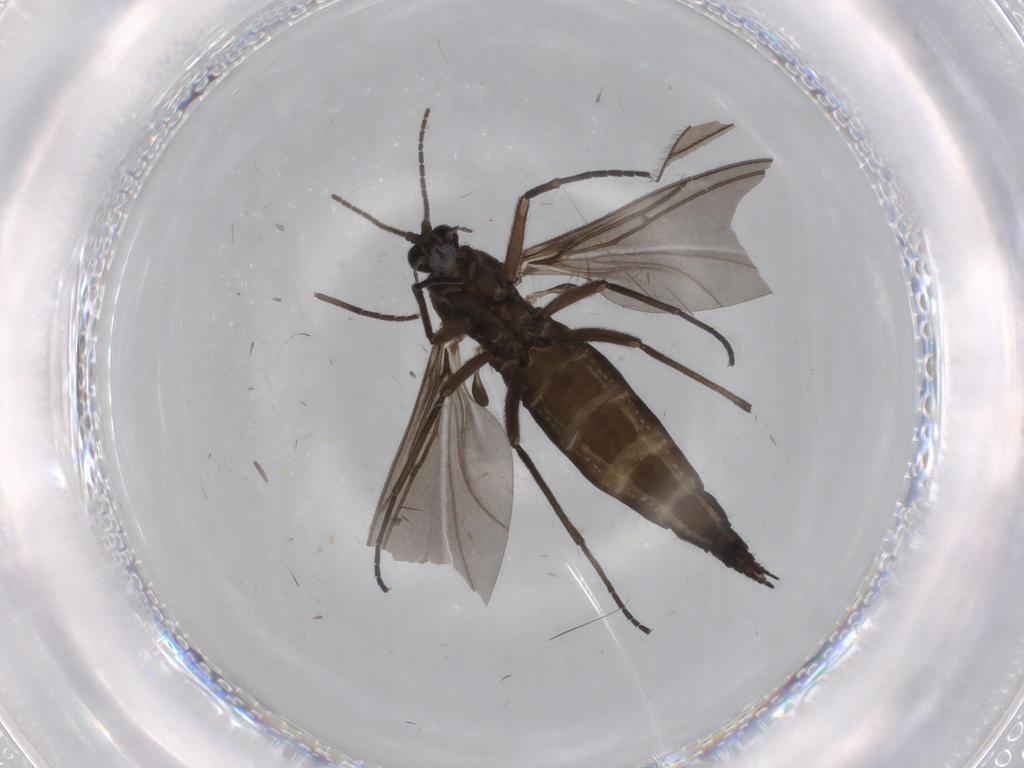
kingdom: Animalia
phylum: Arthropoda
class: Insecta
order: Diptera
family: Sciaridae
